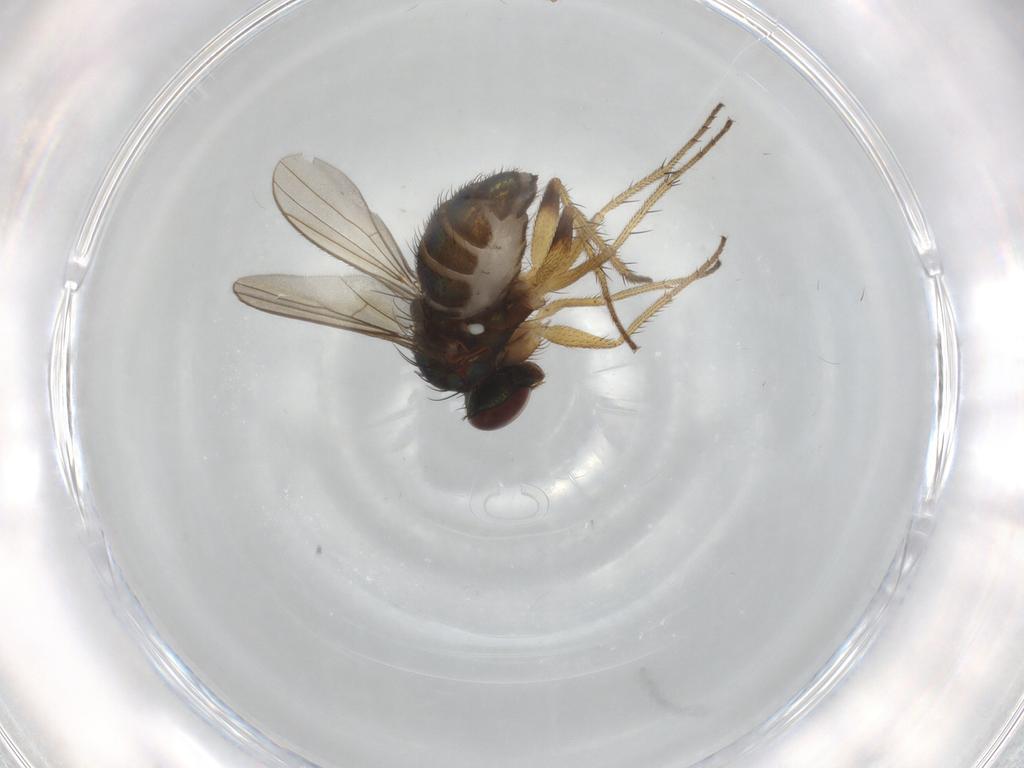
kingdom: Animalia
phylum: Arthropoda
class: Insecta
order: Diptera
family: Dolichopodidae
